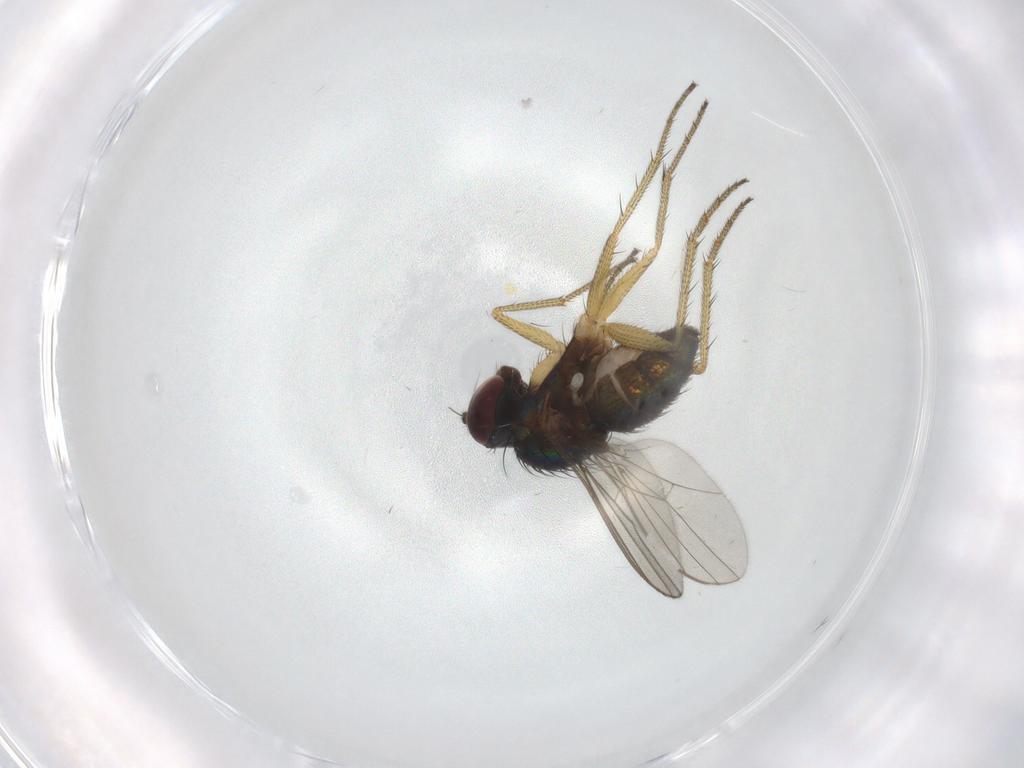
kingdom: Animalia
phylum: Arthropoda
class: Insecta
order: Diptera
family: Dolichopodidae
